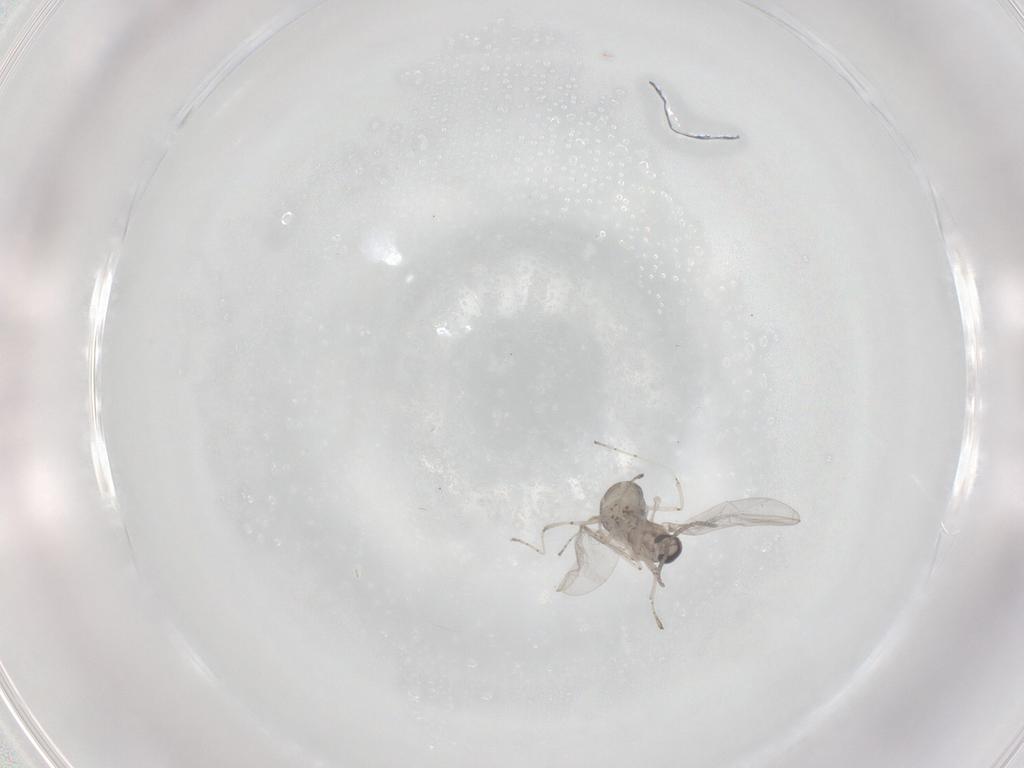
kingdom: Animalia
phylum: Arthropoda
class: Insecta
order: Diptera
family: Cecidomyiidae
